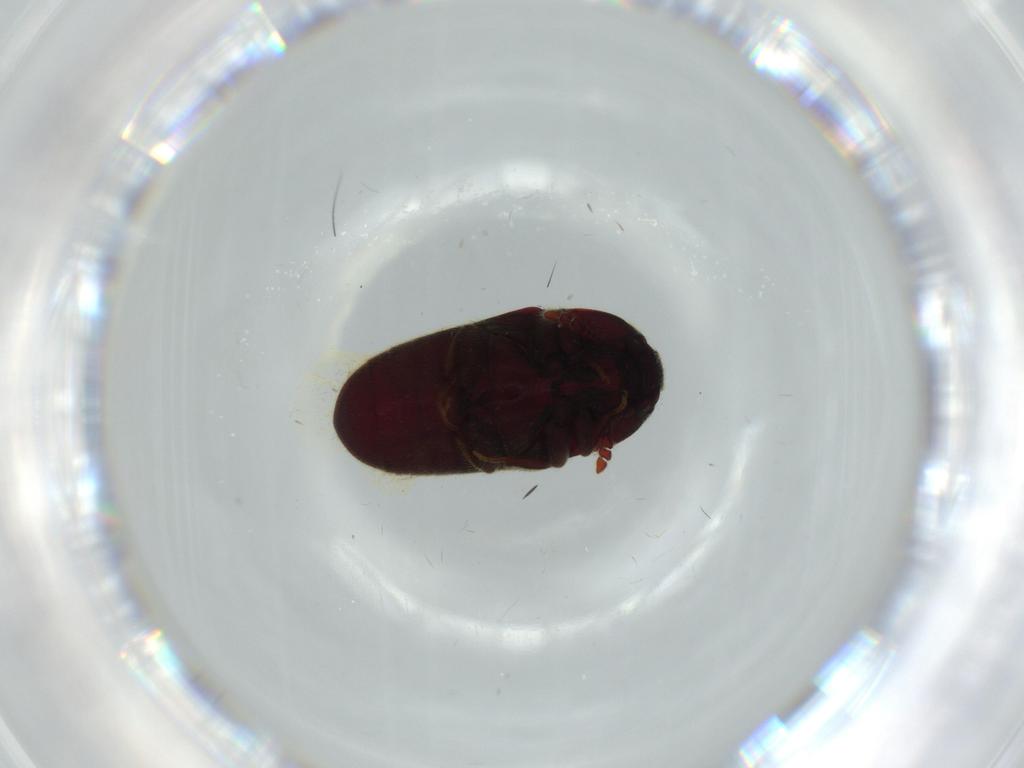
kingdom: Animalia
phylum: Arthropoda
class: Insecta
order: Coleoptera
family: Throscidae
